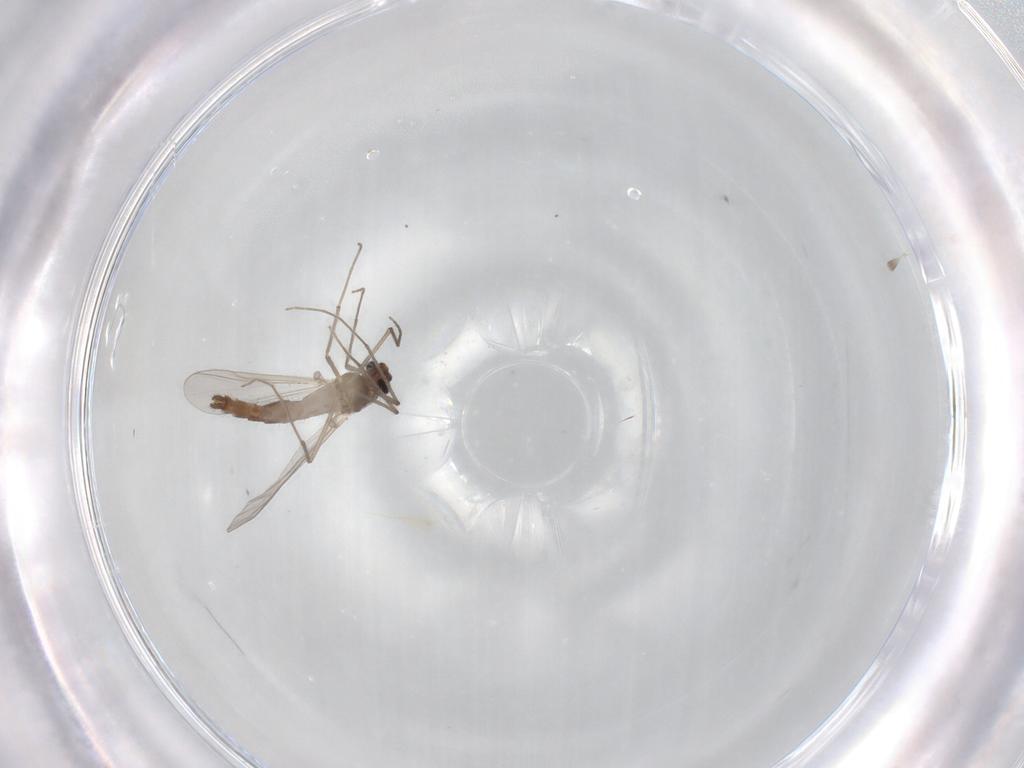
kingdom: Animalia
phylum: Arthropoda
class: Insecta
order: Diptera
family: Chironomidae
